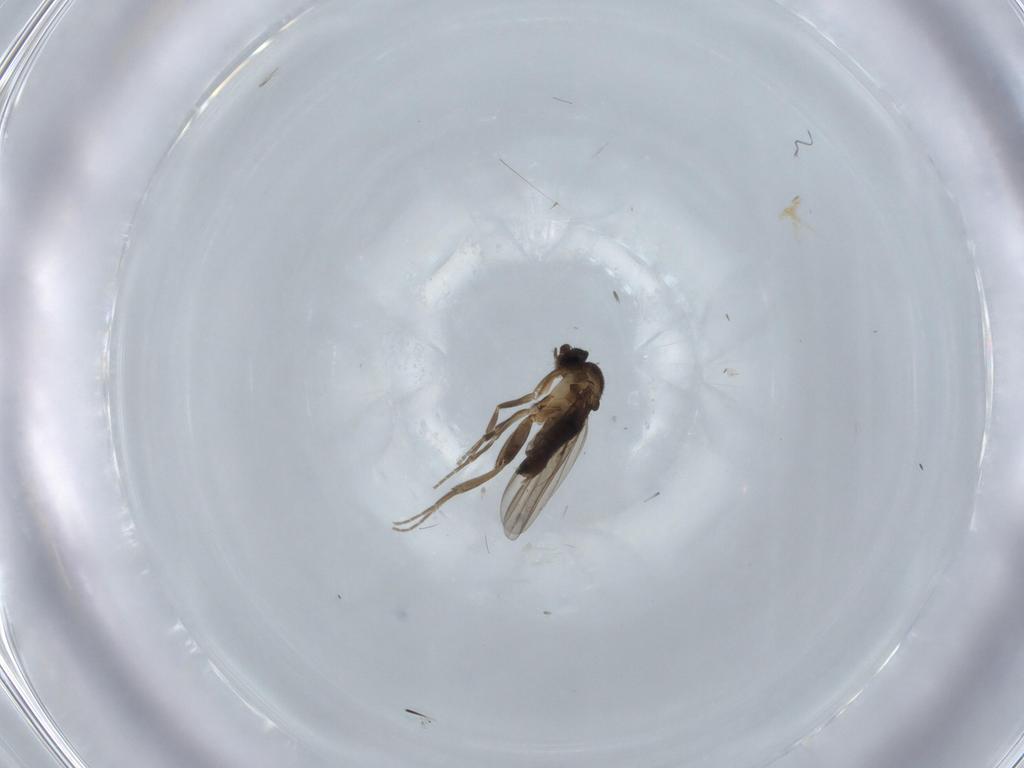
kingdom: Animalia
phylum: Arthropoda
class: Insecta
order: Diptera
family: Phoridae
